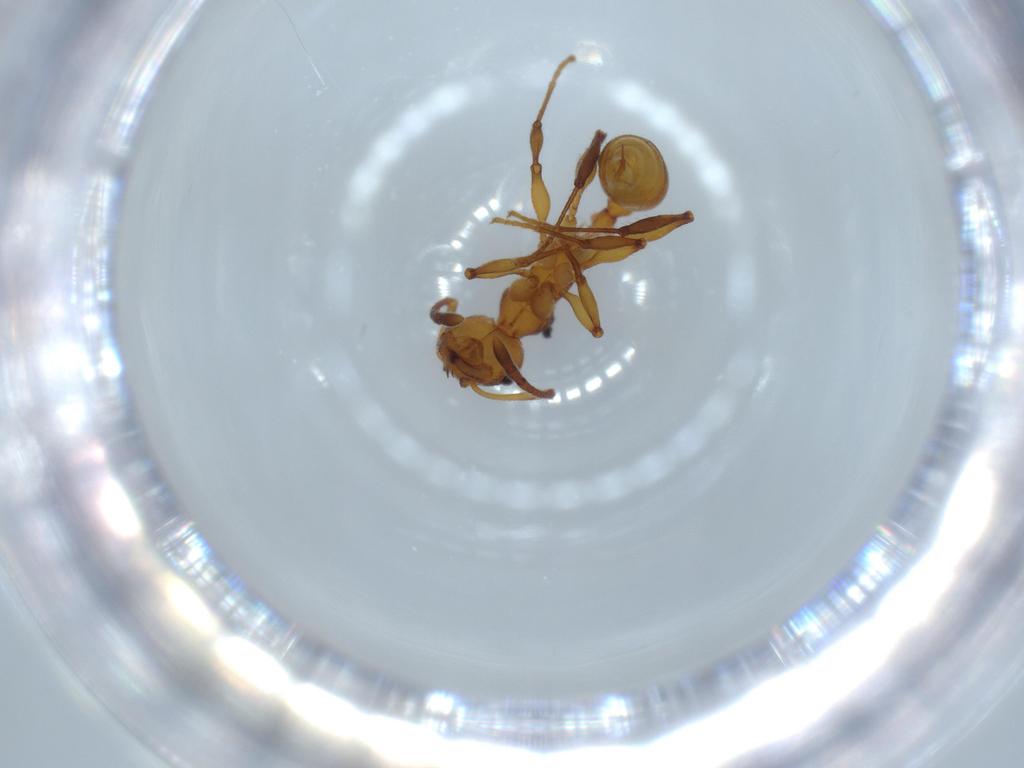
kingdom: Animalia
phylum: Arthropoda
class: Insecta
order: Hymenoptera
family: Formicidae
